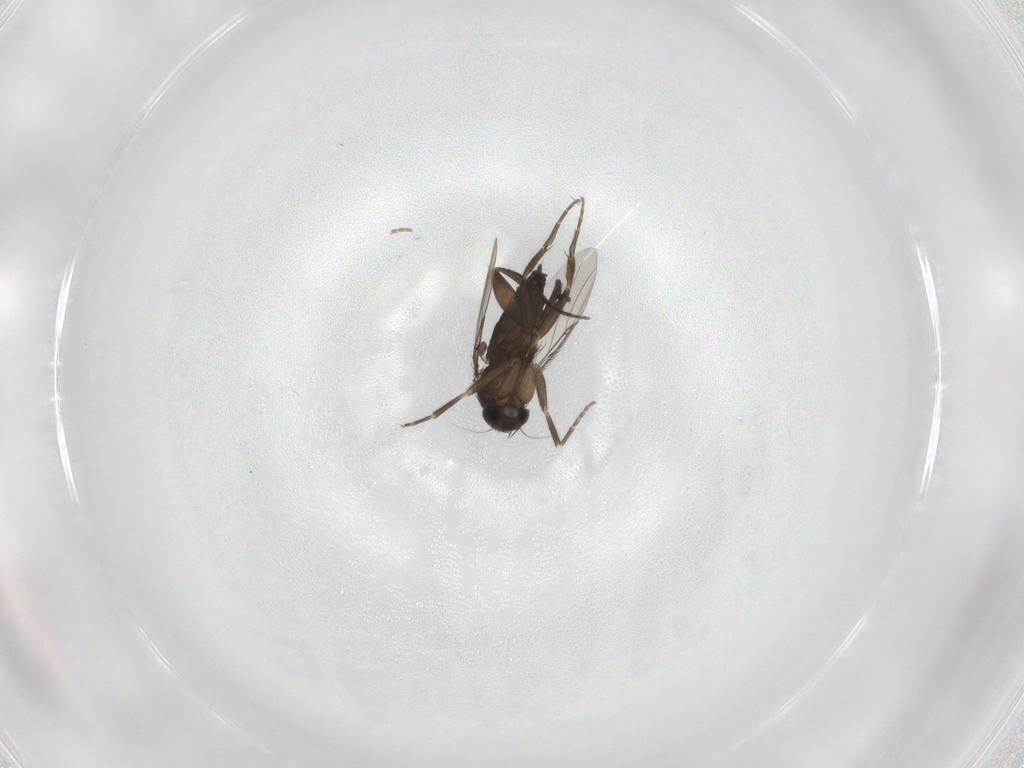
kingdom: Animalia
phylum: Arthropoda
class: Insecta
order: Diptera
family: Phoridae
